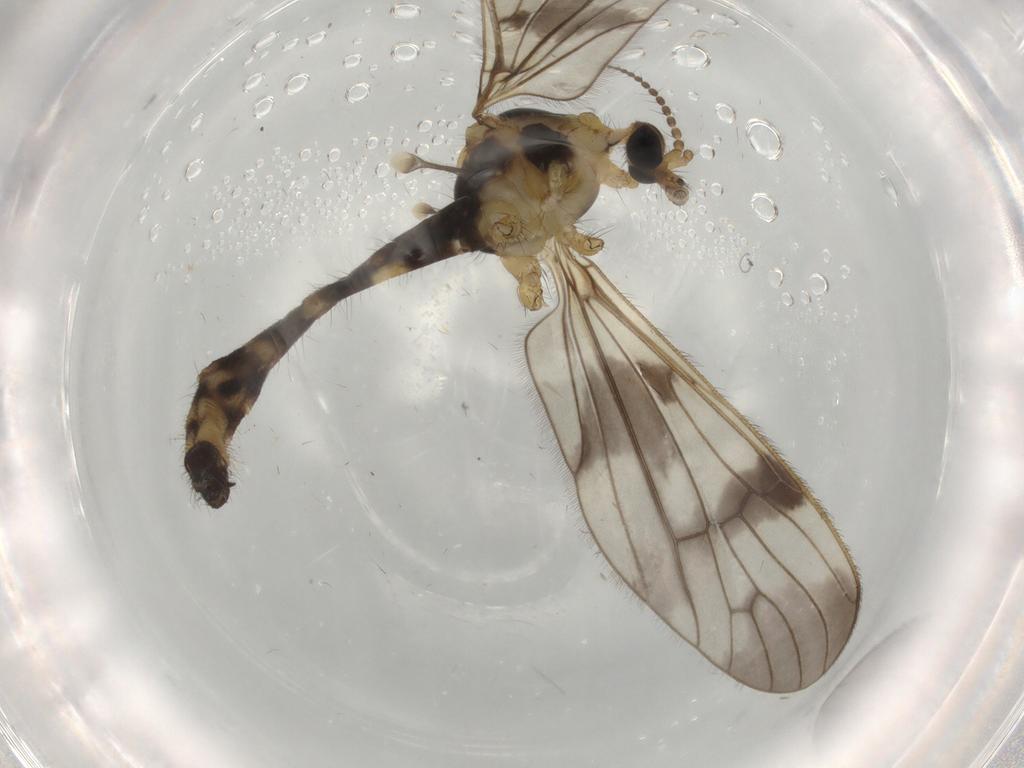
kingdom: Animalia
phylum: Arthropoda
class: Insecta
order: Diptera
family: Limoniidae
